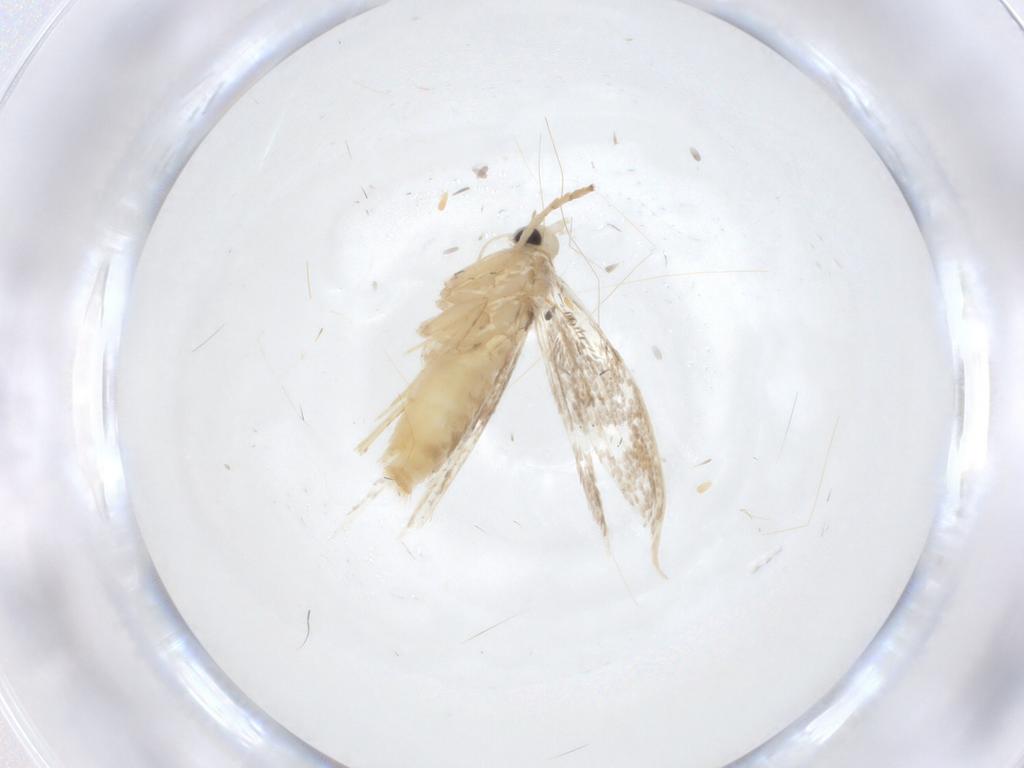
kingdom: Animalia
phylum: Arthropoda
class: Insecta
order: Lepidoptera
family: Gracillariidae
